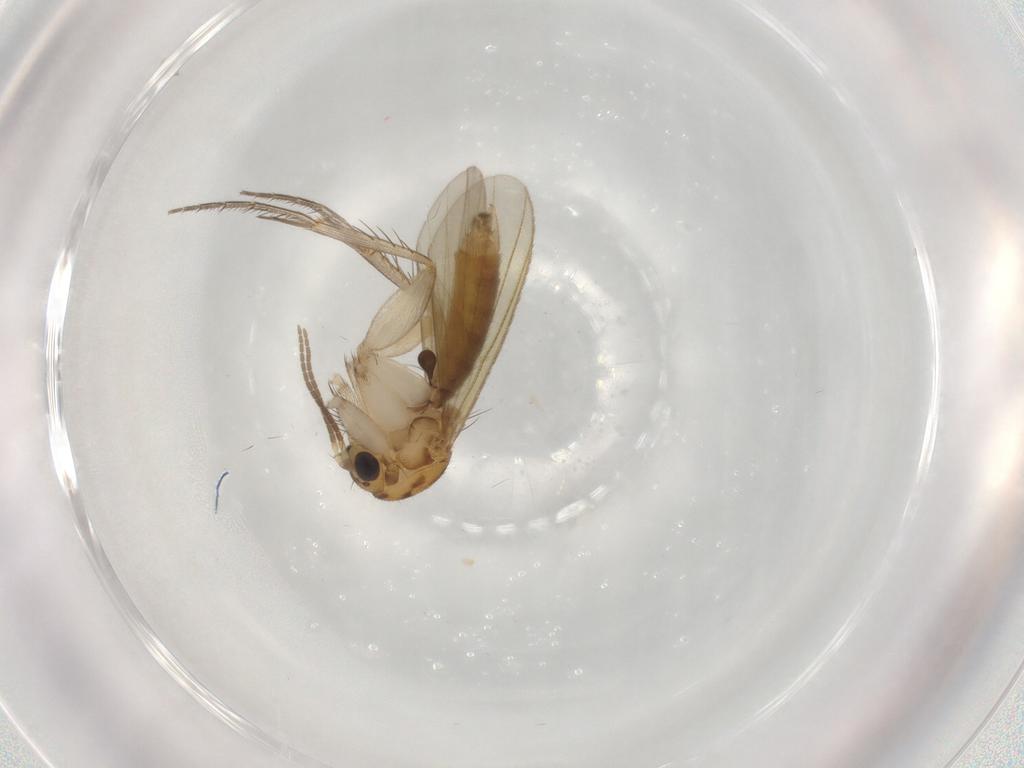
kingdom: Animalia
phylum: Arthropoda
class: Insecta
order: Diptera
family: Mycetophilidae
